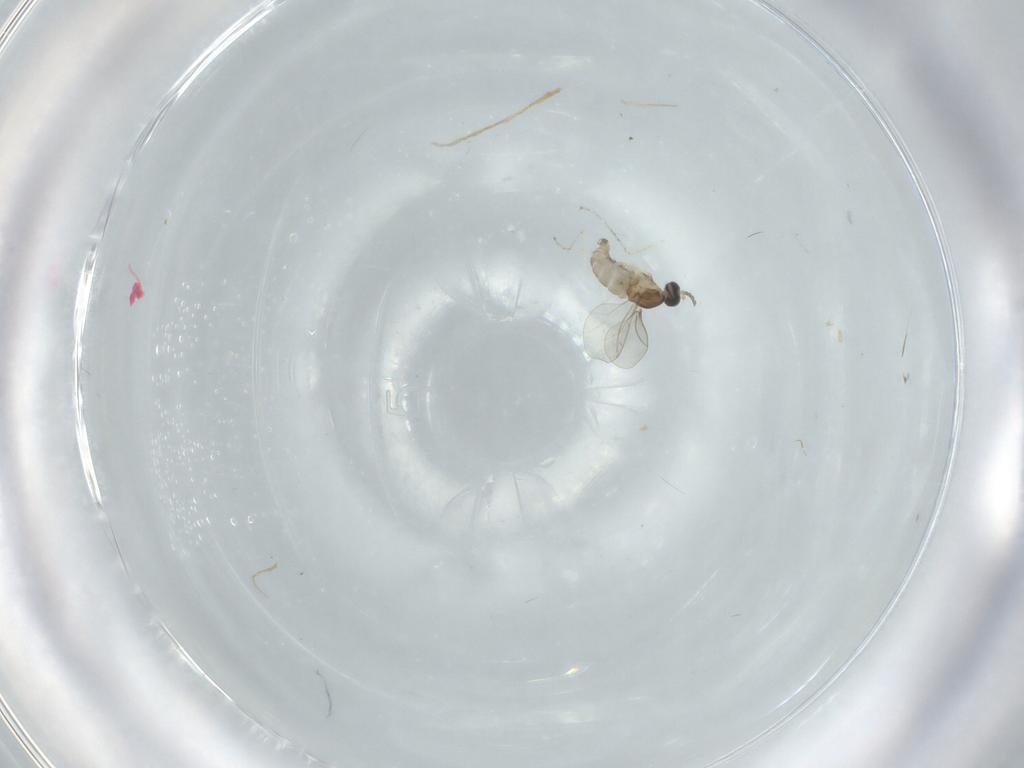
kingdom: Animalia
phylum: Arthropoda
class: Insecta
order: Diptera
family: Cecidomyiidae
